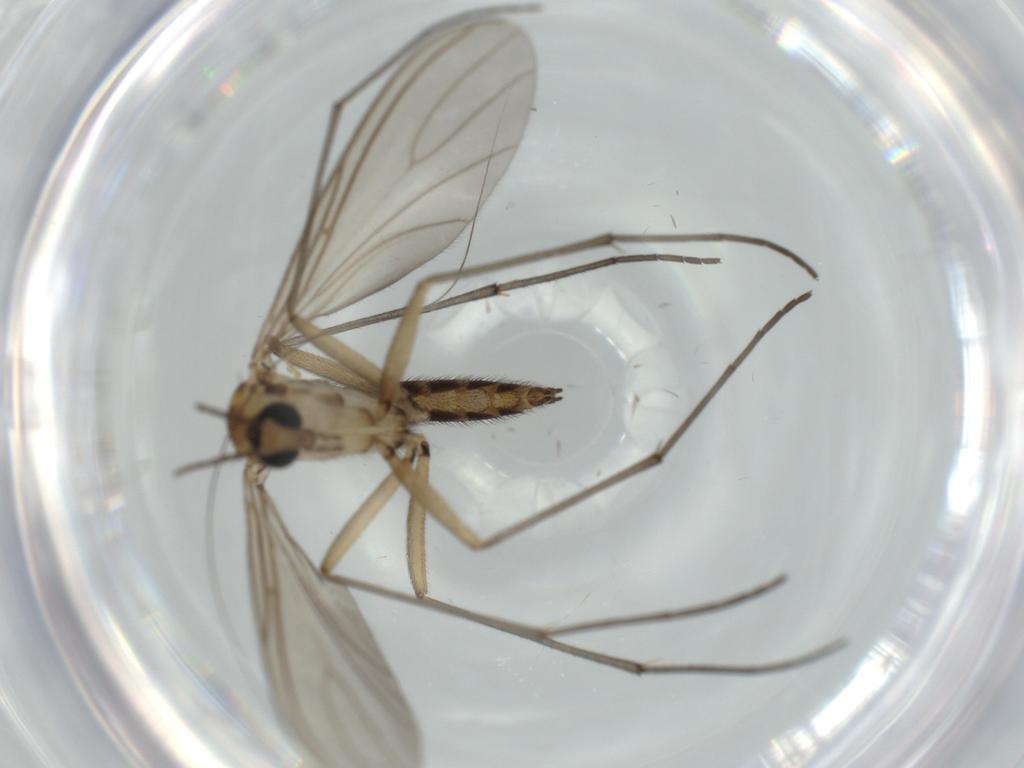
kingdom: Animalia
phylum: Arthropoda
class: Insecta
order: Diptera
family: Sciaridae
